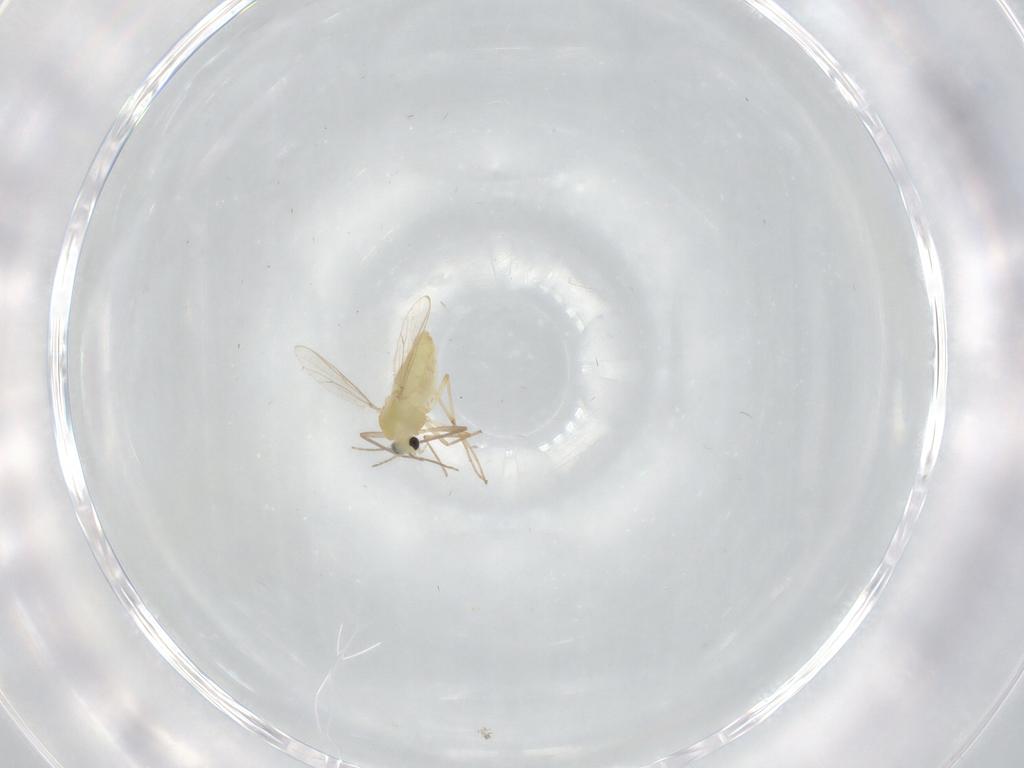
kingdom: Animalia
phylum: Arthropoda
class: Insecta
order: Diptera
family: Chironomidae
